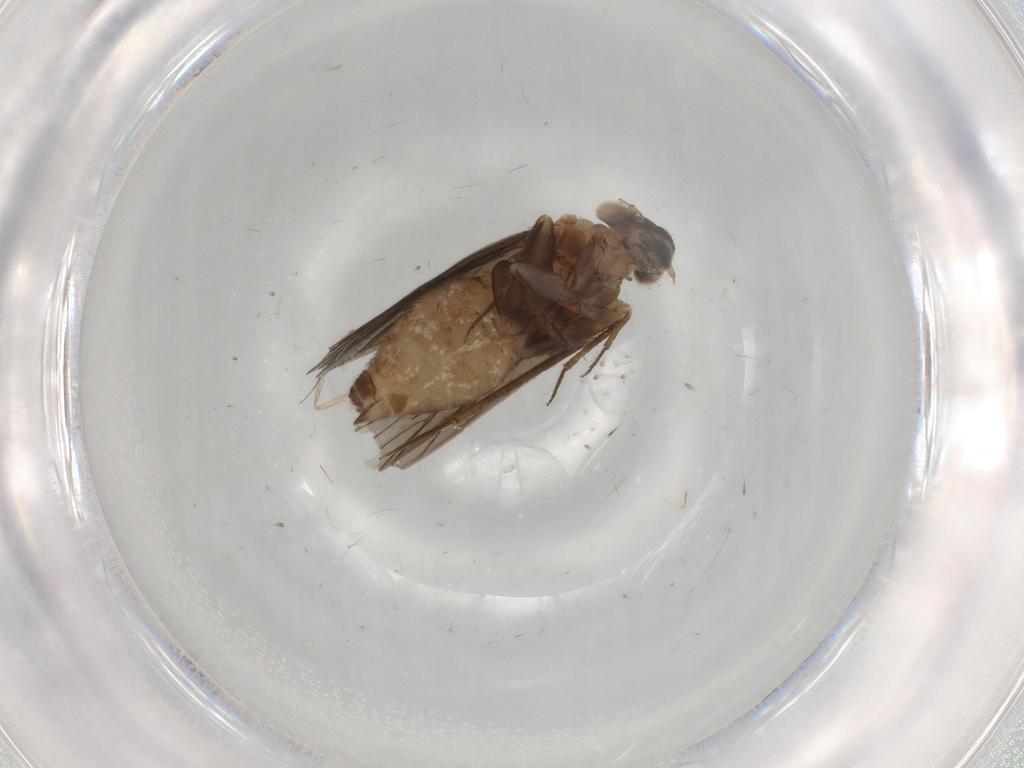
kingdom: Animalia
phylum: Arthropoda
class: Insecta
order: Psocodea
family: Lepidopsocidae
